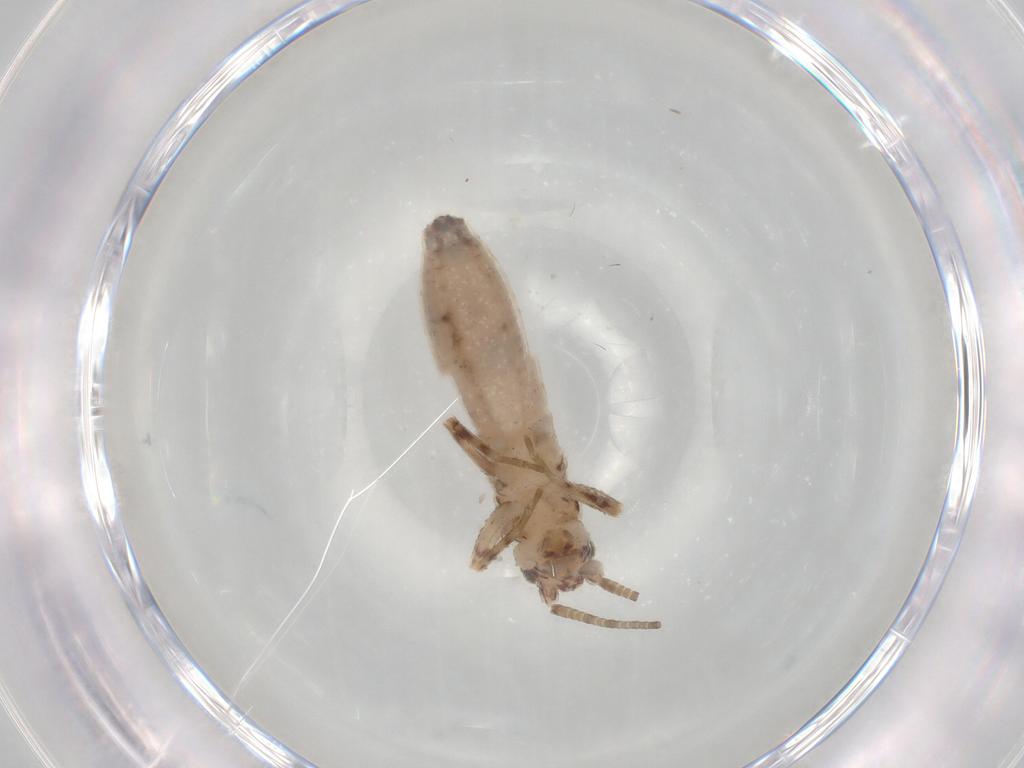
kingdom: Animalia
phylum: Arthropoda
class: Insecta
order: Orthoptera
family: Mogoplistidae
